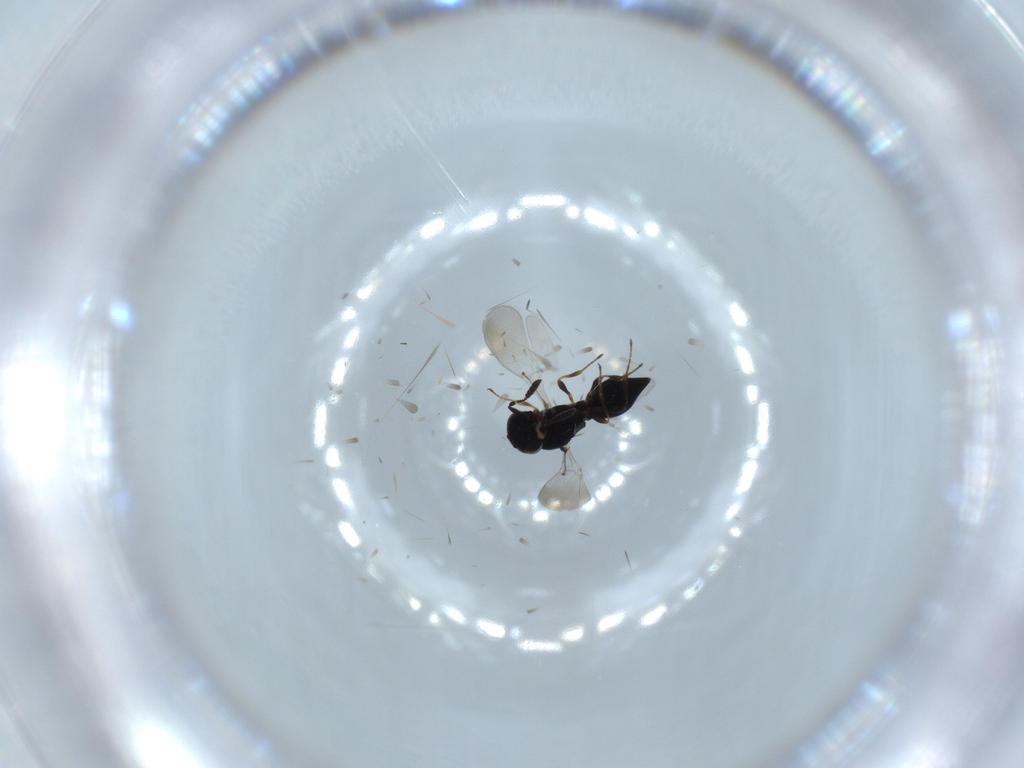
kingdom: Animalia
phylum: Arthropoda
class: Insecta
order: Hymenoptera
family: Platygastridae
